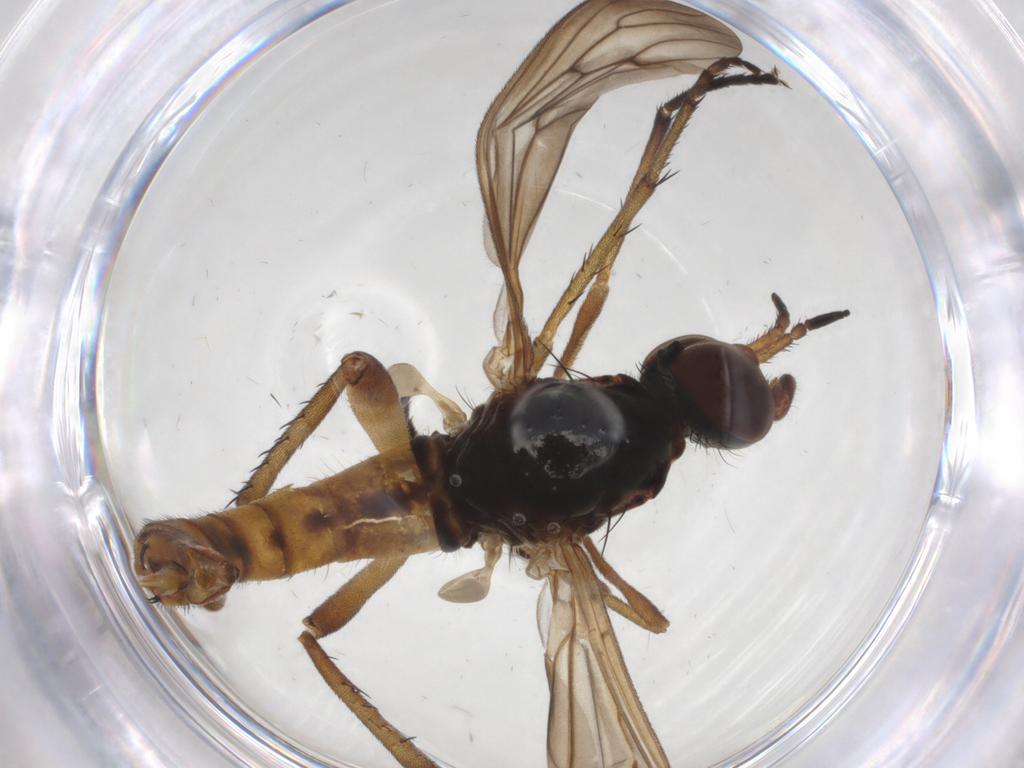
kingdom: Animalia
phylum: Arthropoda
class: Insecta
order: Diptera
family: Therevidae
